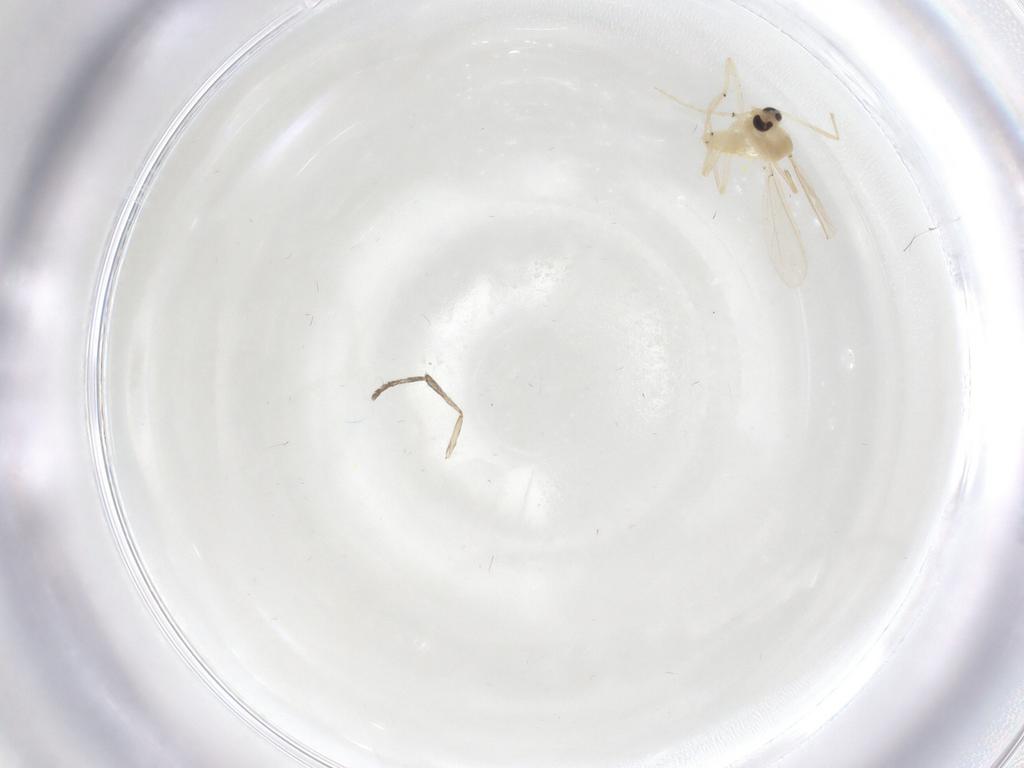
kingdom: Animalia
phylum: Arthropoda
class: Insecta
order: Diptera
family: Chironomidae
